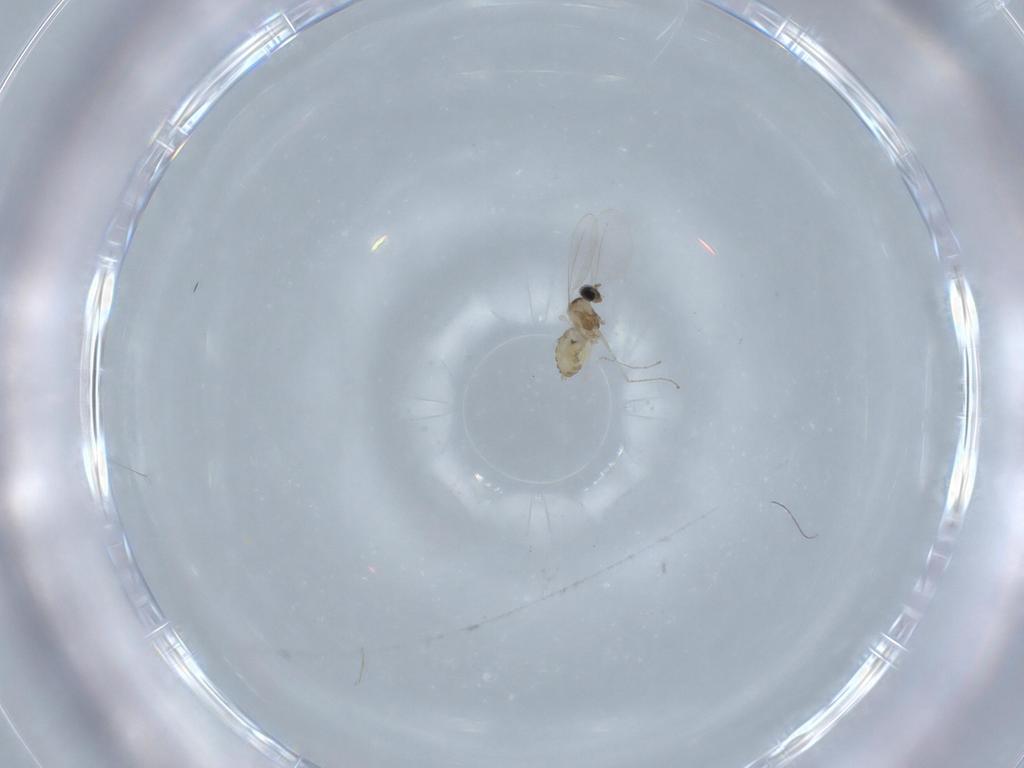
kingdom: Animalia
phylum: Arthropoda
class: Insecta
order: Diptera
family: Cecidomyiidae
